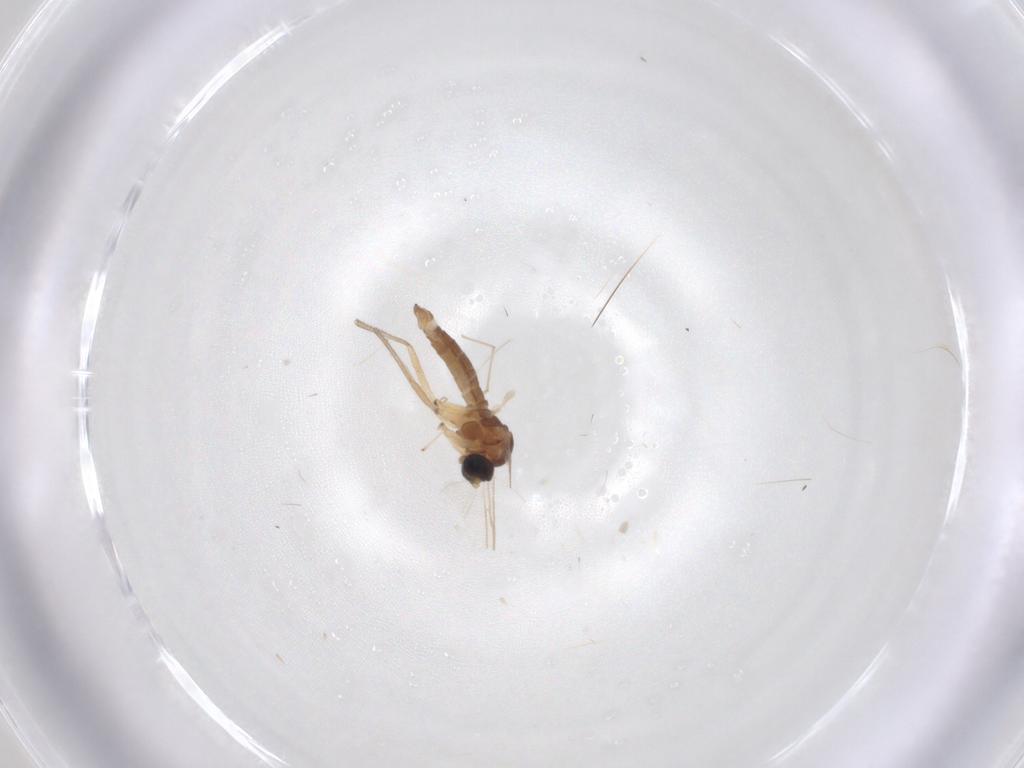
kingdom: Animalia
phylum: Arthropoda
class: Insecta
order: Diptera
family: Sciaridae
